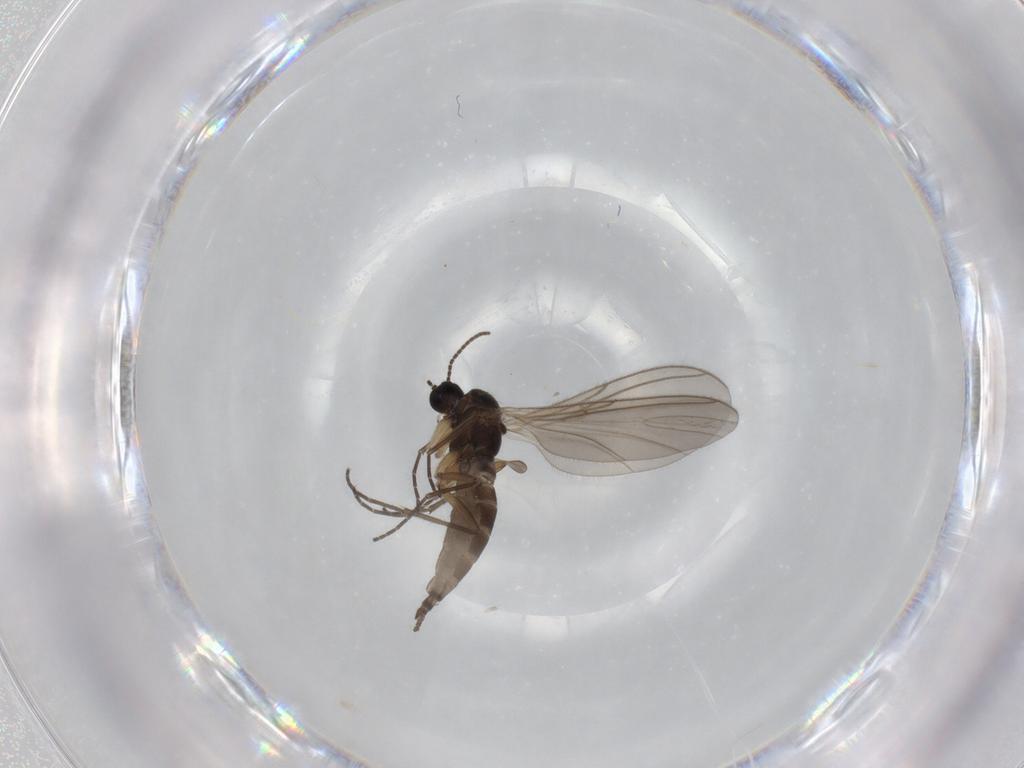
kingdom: Animalia
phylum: Arthropoda
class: Insecta
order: Diptera
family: Sciaridae
